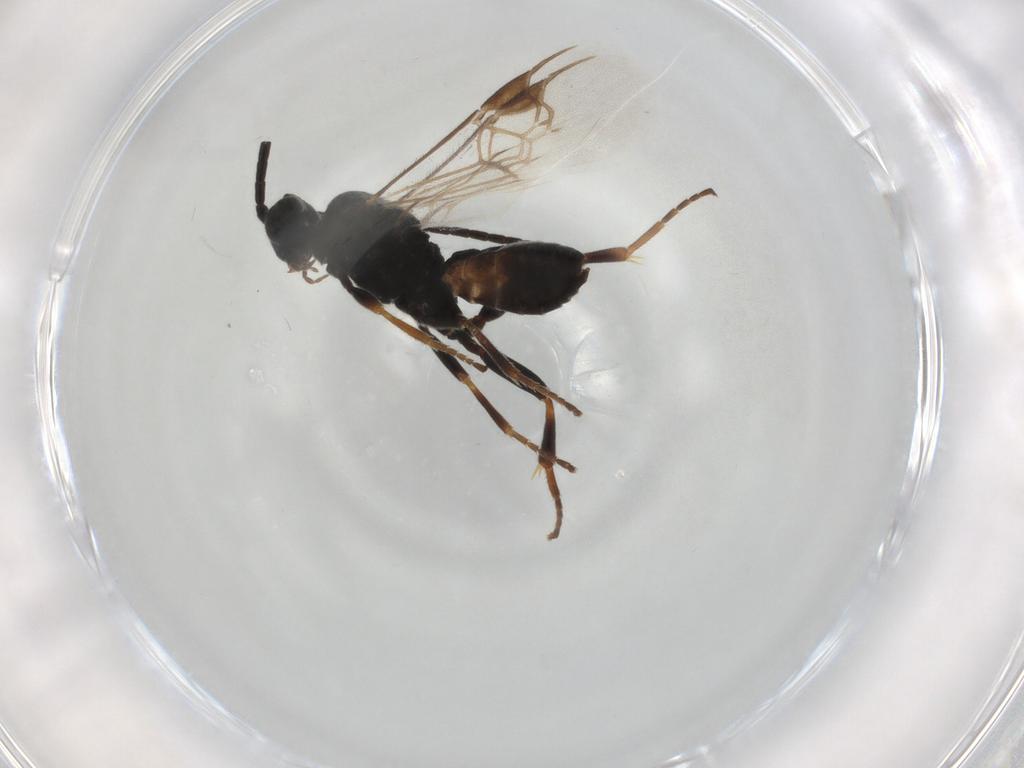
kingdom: Animalia
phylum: Arthropoda
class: Insecta
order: Hymenoptera
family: Braconidae
